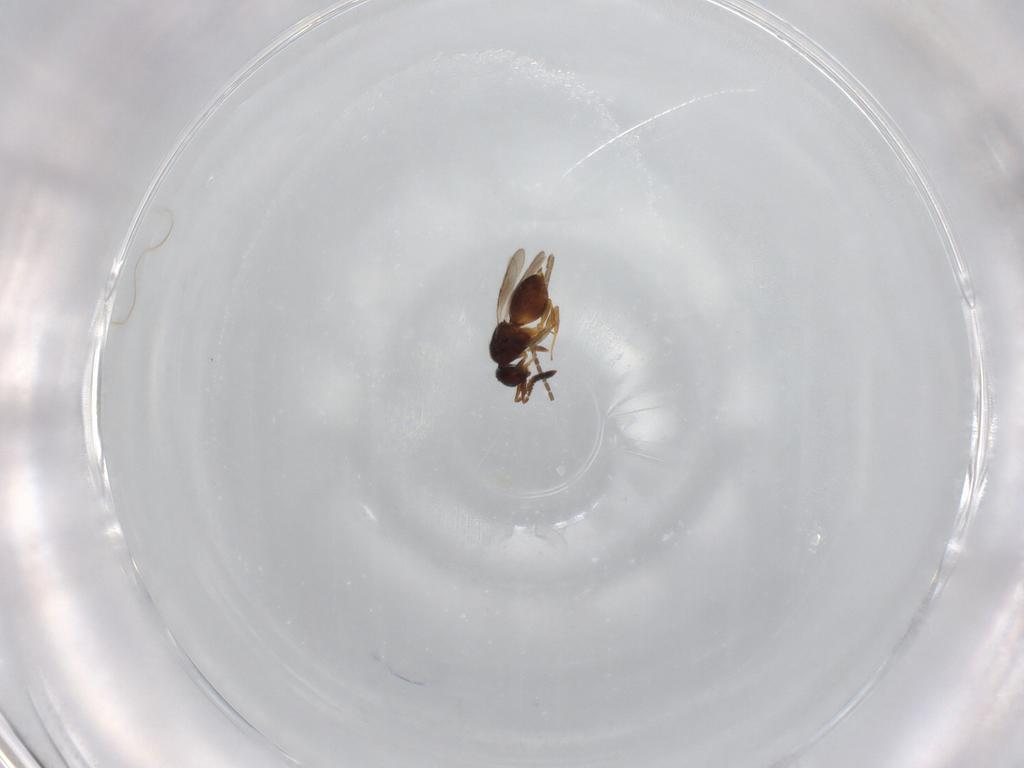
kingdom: Animalia
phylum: Arthropoda
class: Insecta
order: Hymenoptera
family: Ceraphronidae
